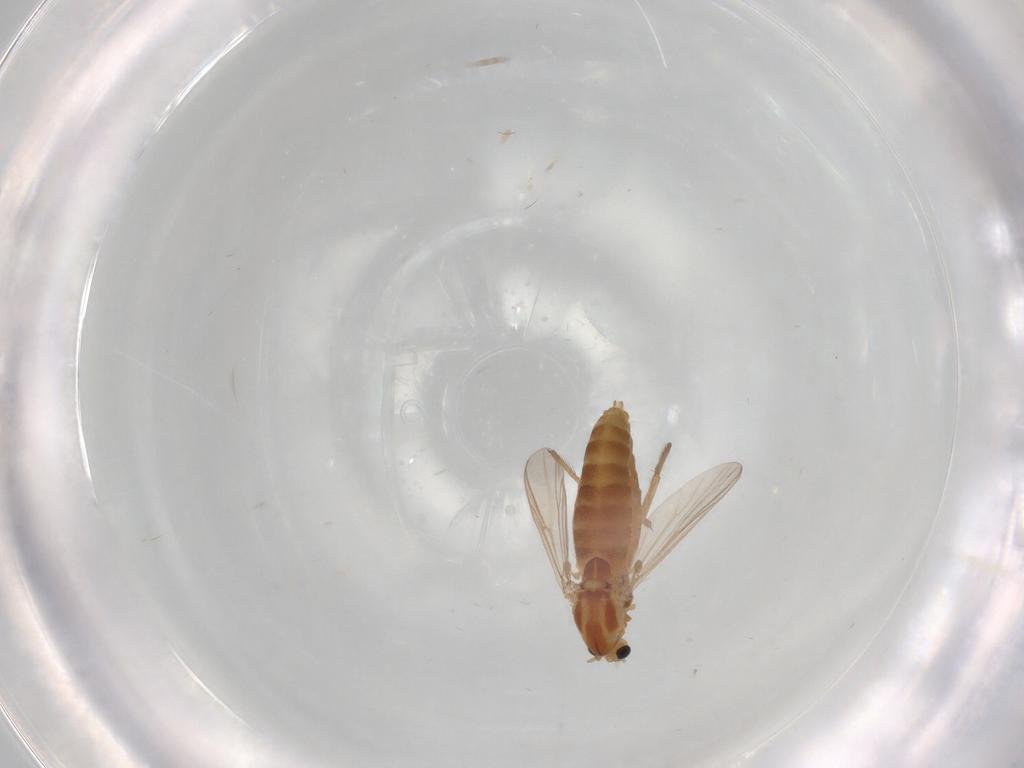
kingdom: Animalia
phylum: Arthropoda
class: Insecta
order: Diptera
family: Chironomidae
